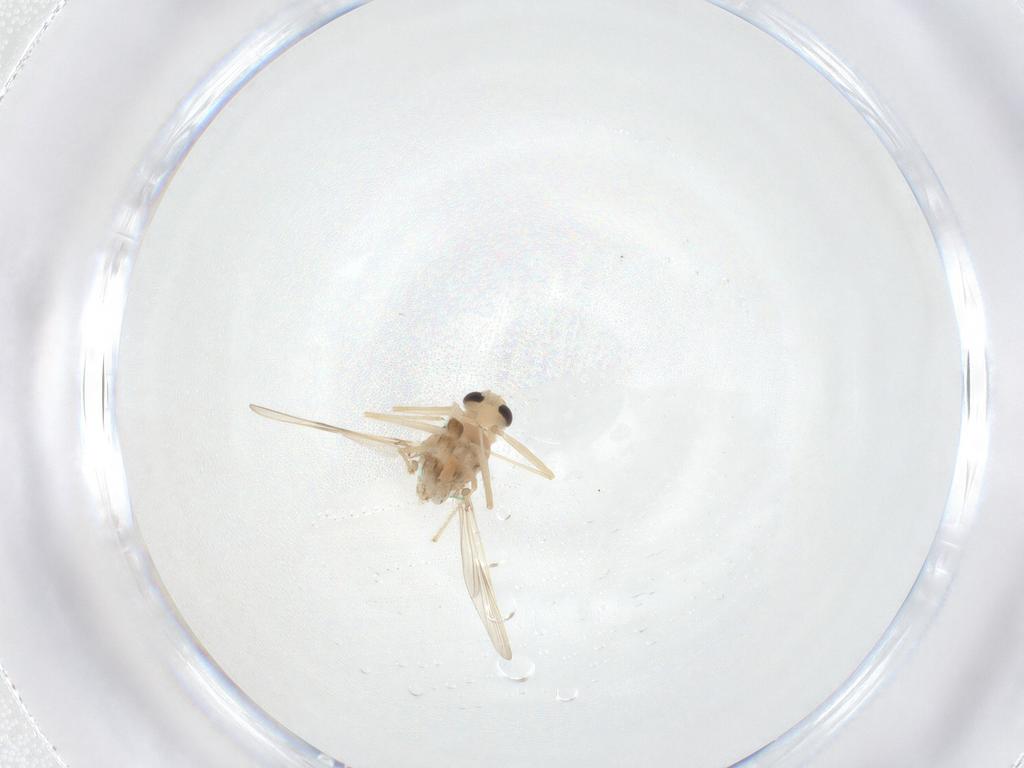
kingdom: Animalia
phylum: Arthropoda
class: Insecta
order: Diptera
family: Chironomidae
